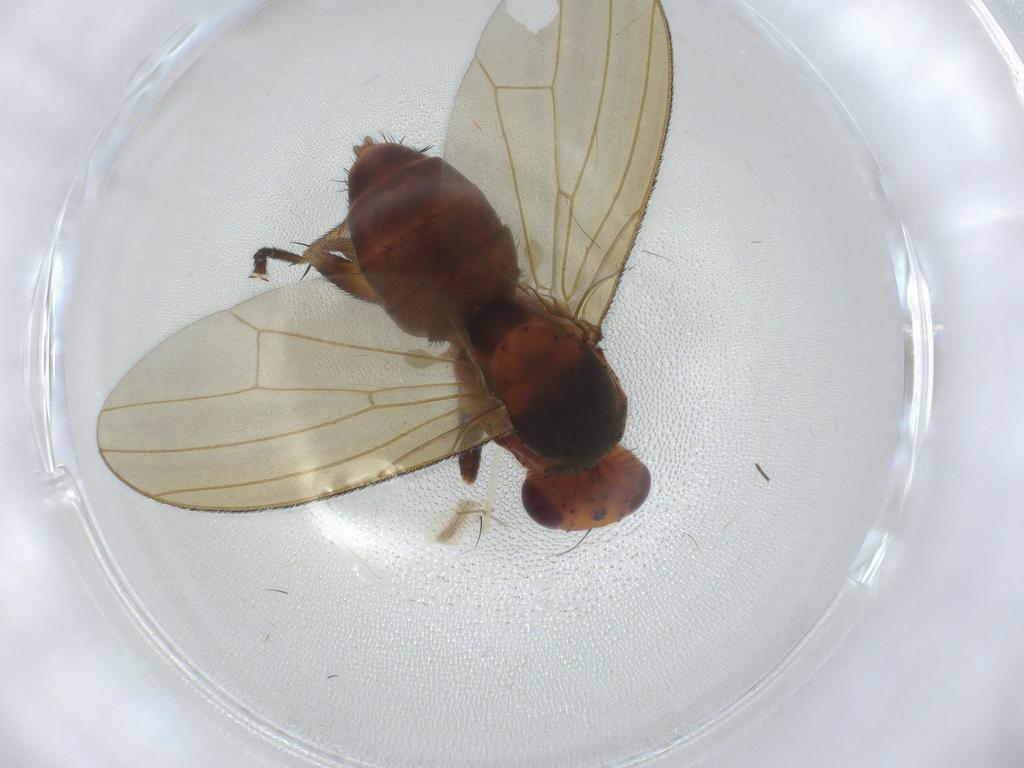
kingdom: Animalia
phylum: Arthropoda
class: Insecta
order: Diptera
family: Sciomyzidae
